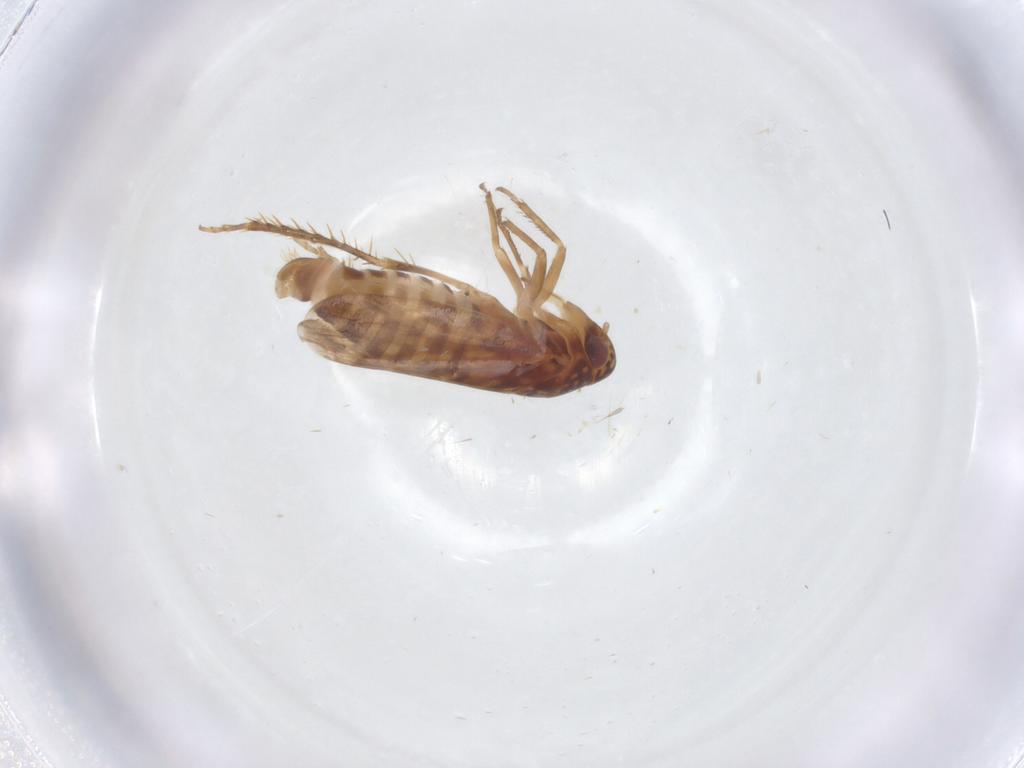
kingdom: Animalia
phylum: Arthropoda
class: Insecta
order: Hemiptera
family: Cicadellidae
